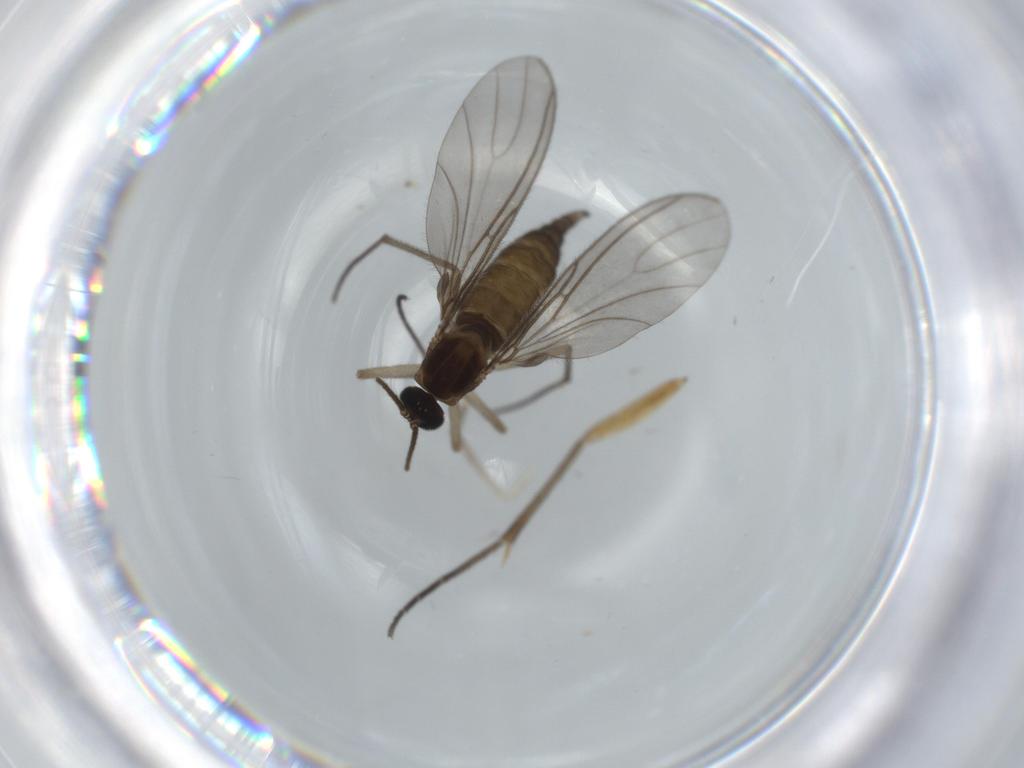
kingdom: Animalia
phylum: Arthropoda
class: Insecta
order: Diptera
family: Sciaridae
